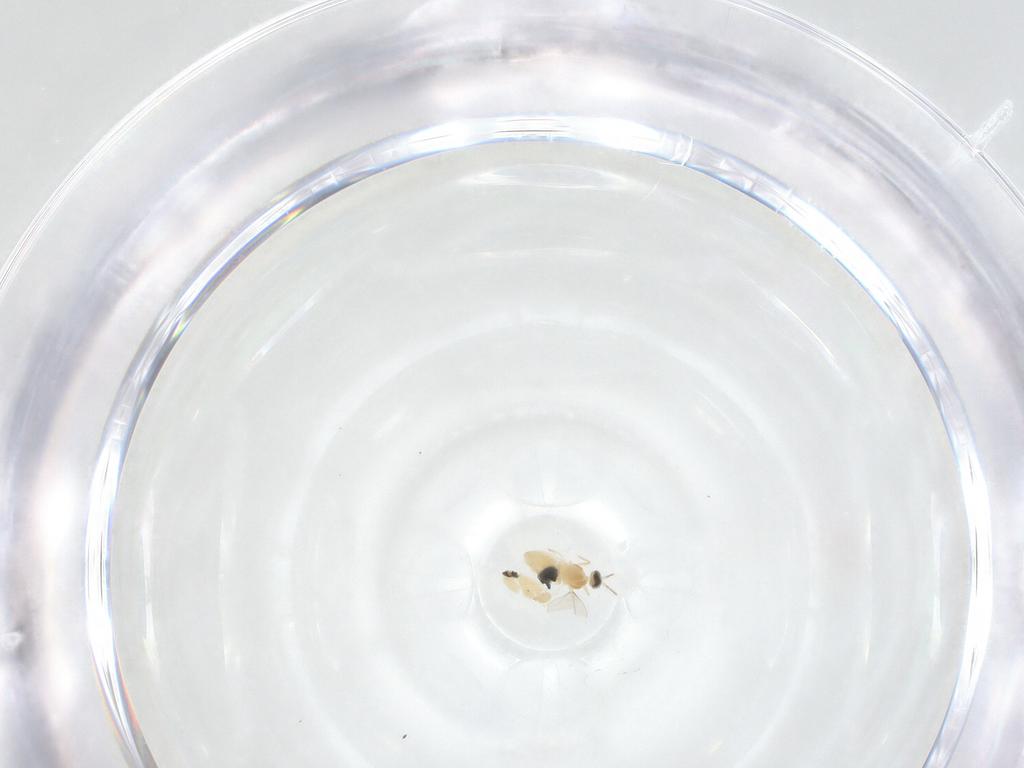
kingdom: Animalia
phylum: Arthropoda
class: Insecta
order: Diptera
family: Cecidomyiidae
